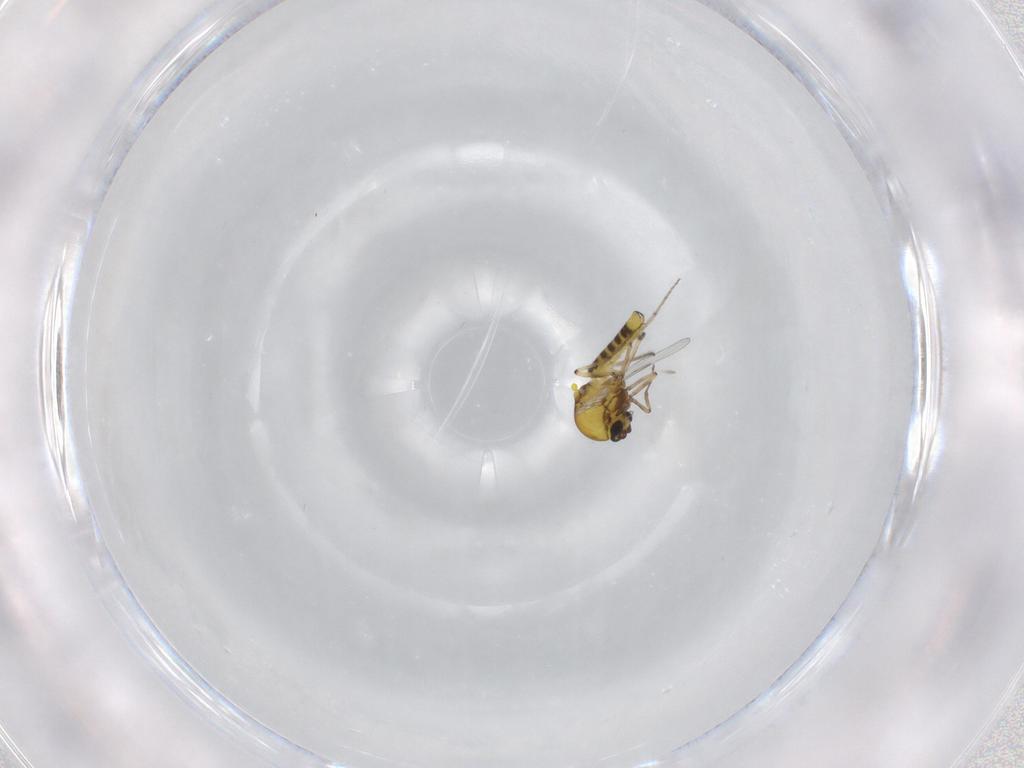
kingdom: Animalia
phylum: Arthropoda
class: Insecta
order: Diptera
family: Ceratopogonidae
